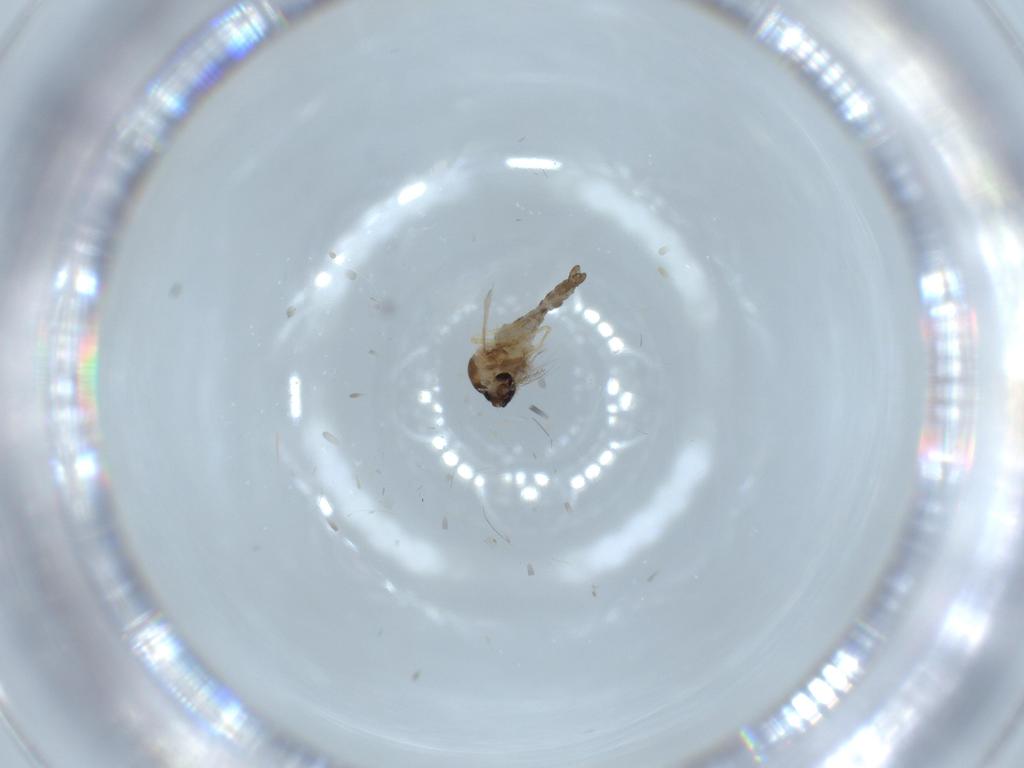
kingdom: Animalia
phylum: Arthropoda
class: Insecta
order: Diptera
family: Ceratopogonidae
